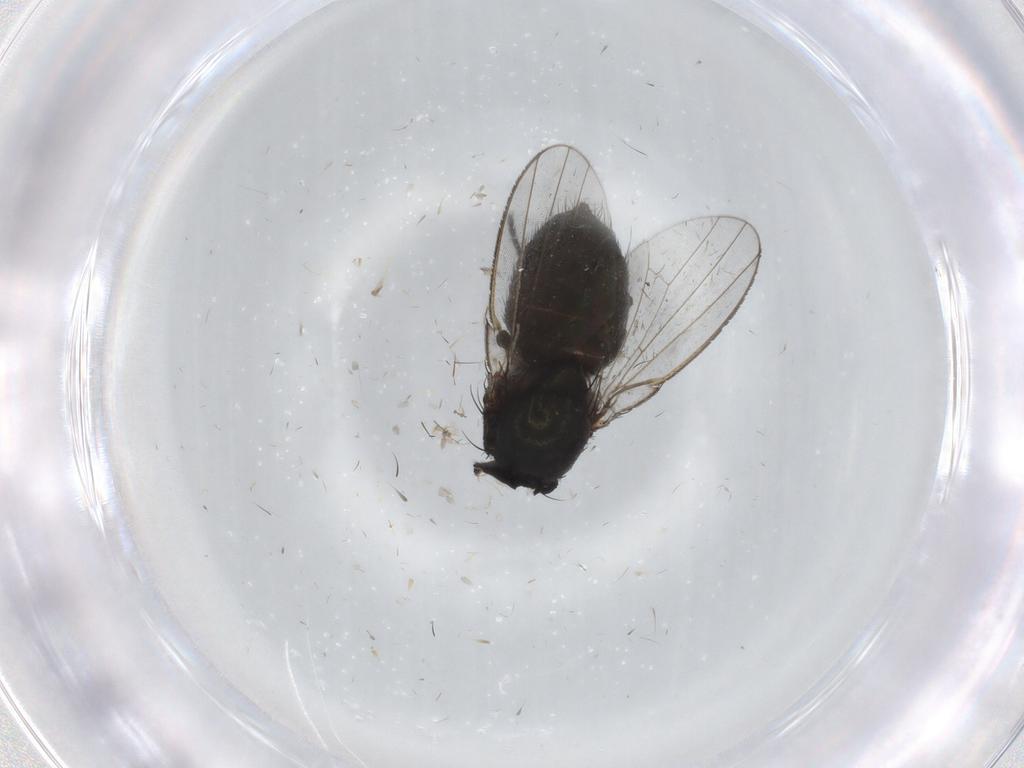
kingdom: Animalia
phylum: Arthropoda
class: Insecta
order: Diptera
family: Milichiidae
